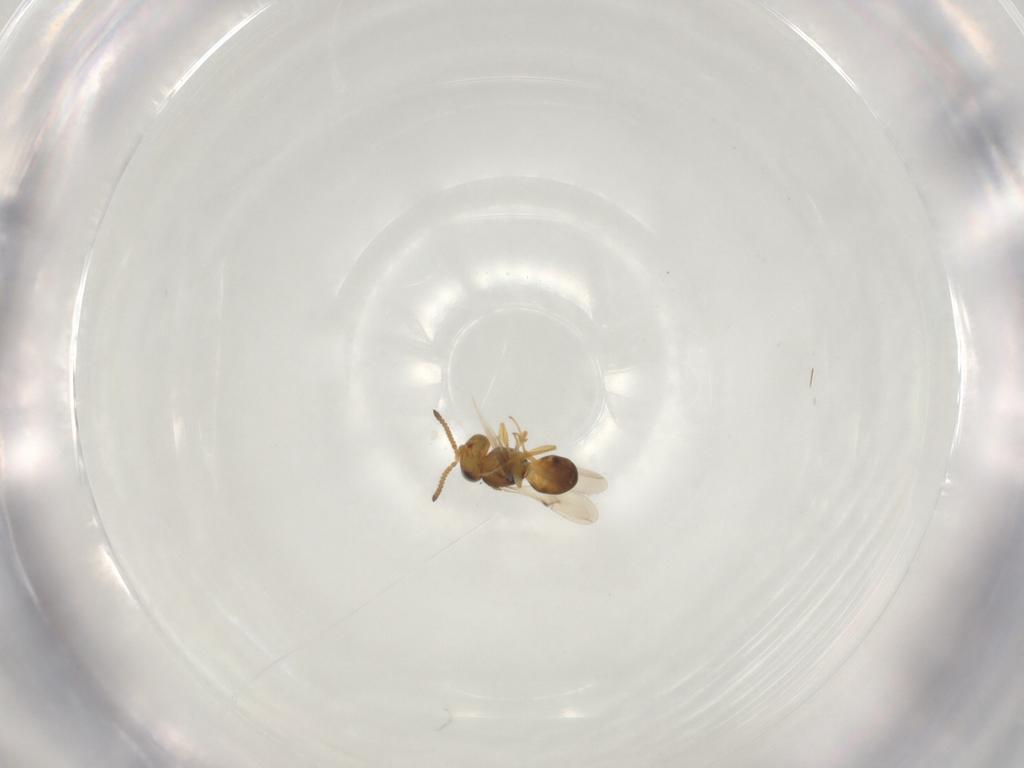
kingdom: Animalia
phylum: Arthropoda
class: Insecta
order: Hymenoptera
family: Scelionidae
